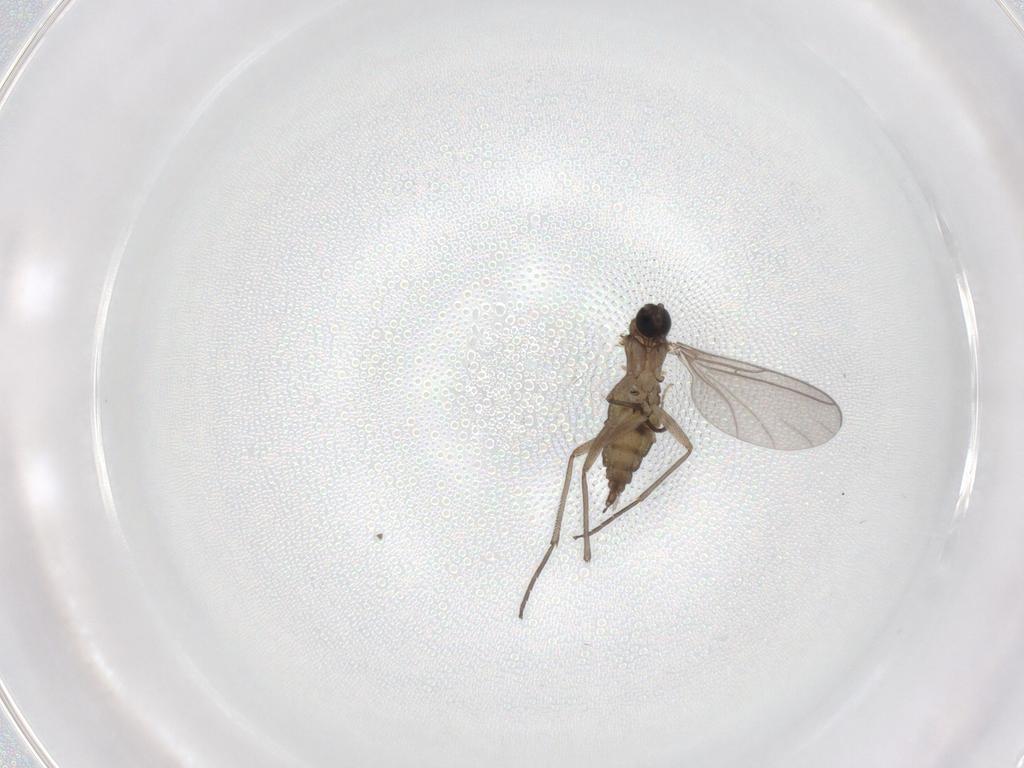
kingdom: Animalia
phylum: Arthropoda
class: Insecta
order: Diptera
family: Sciaridae
